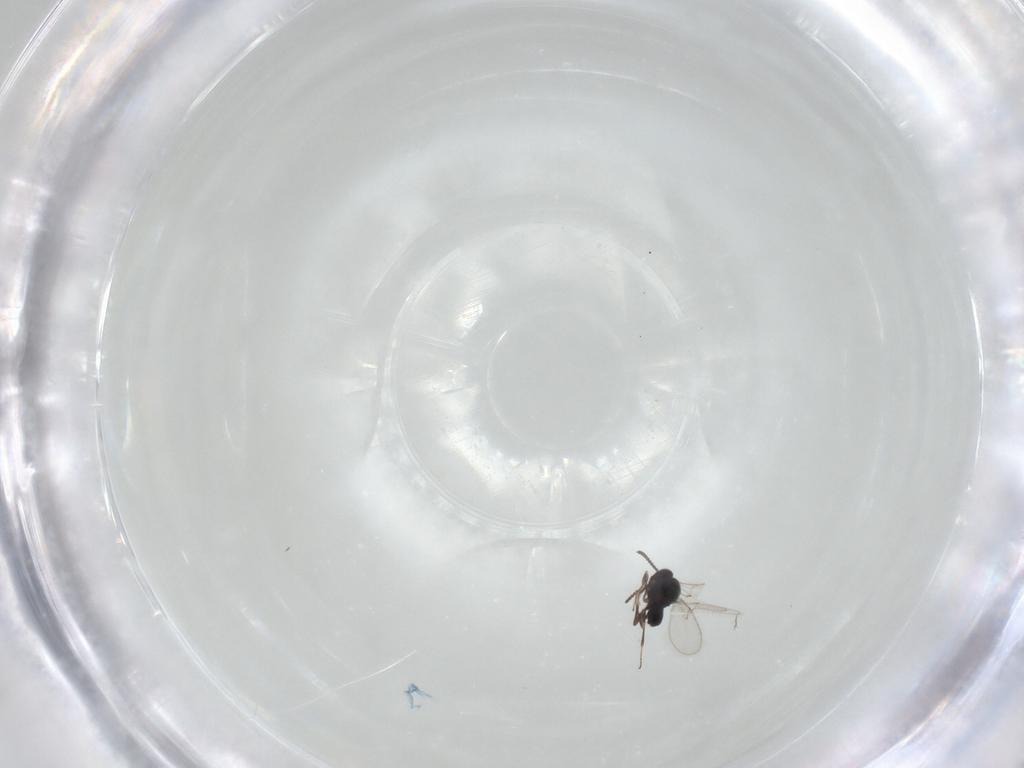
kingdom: Animalia
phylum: Arthropoda
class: Insecta
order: Hymenoptera
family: Scelionidae
